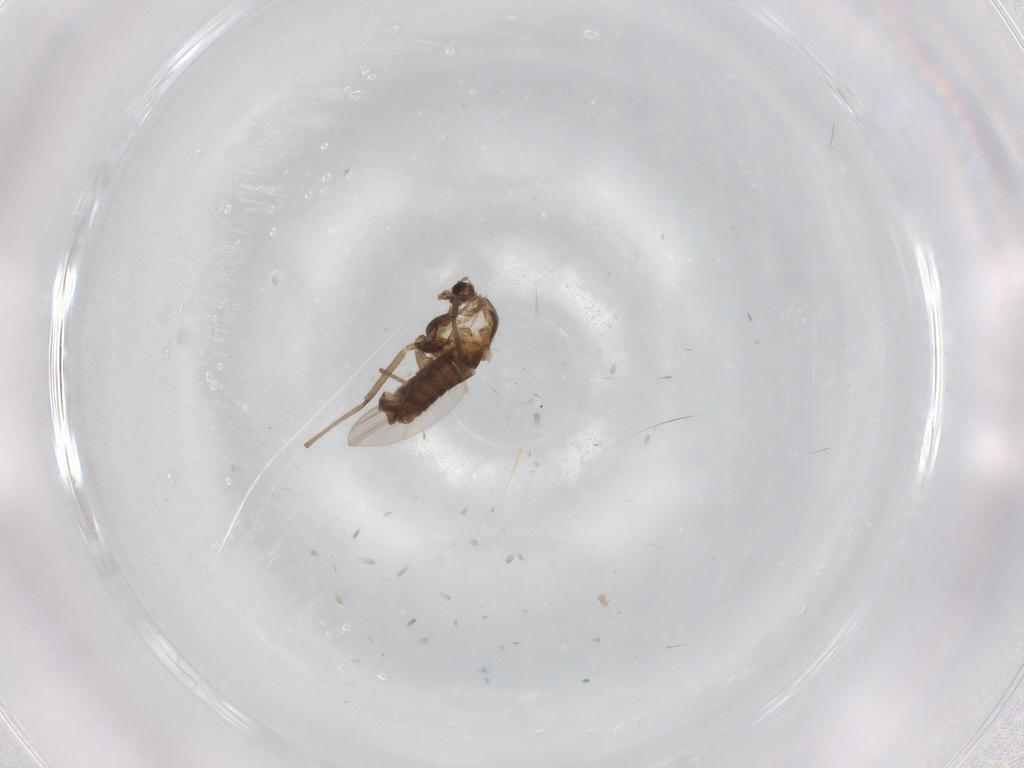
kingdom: Animalia
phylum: Arthropoda
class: Insecta
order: Diptera
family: Chironomidae
